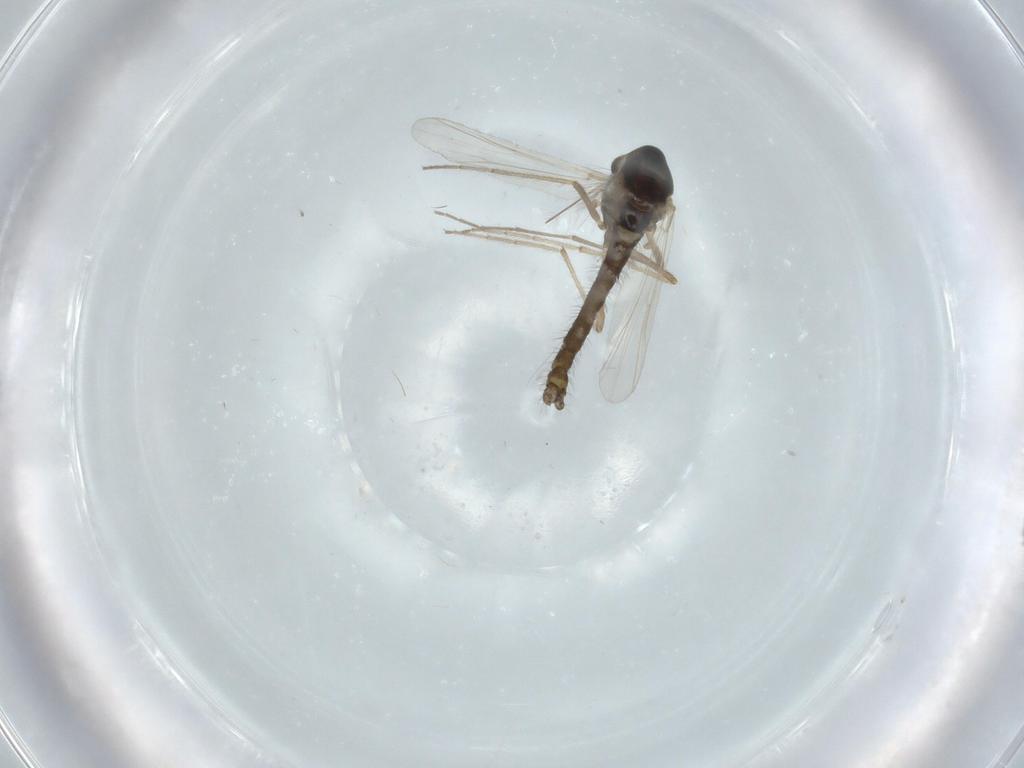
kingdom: Animalia
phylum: Arthropoda
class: Insecta
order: Diptera
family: Chironomidae
